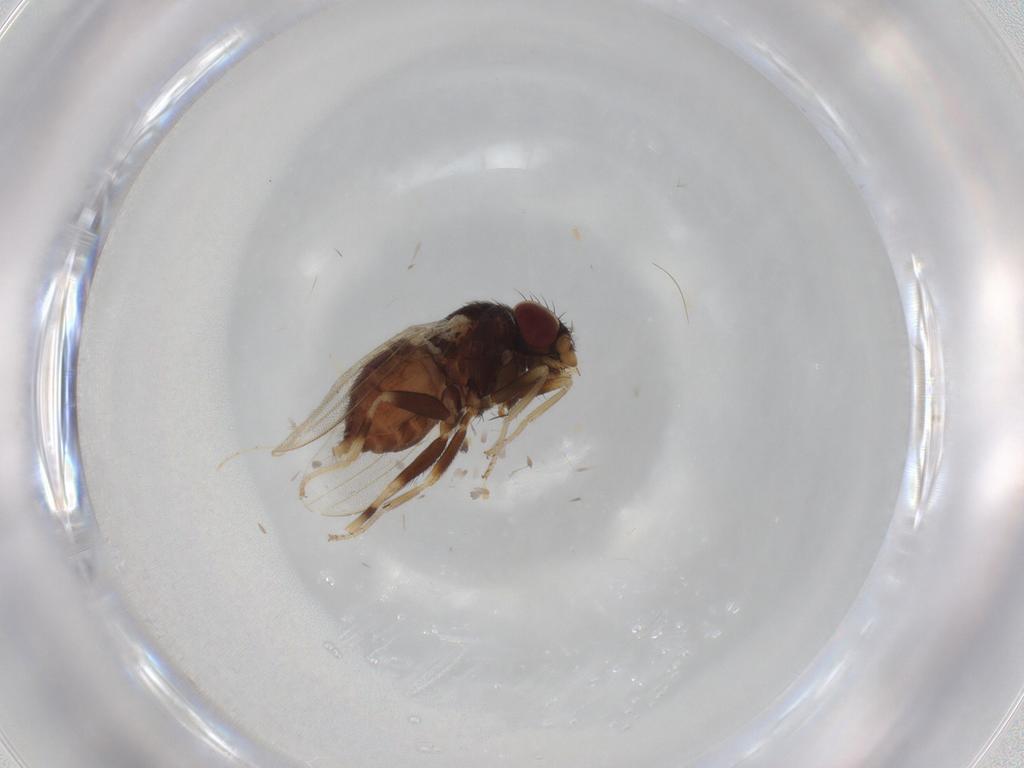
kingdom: Animalia
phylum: Arthropoda
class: Insecta
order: Diptera
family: Milichiidae
